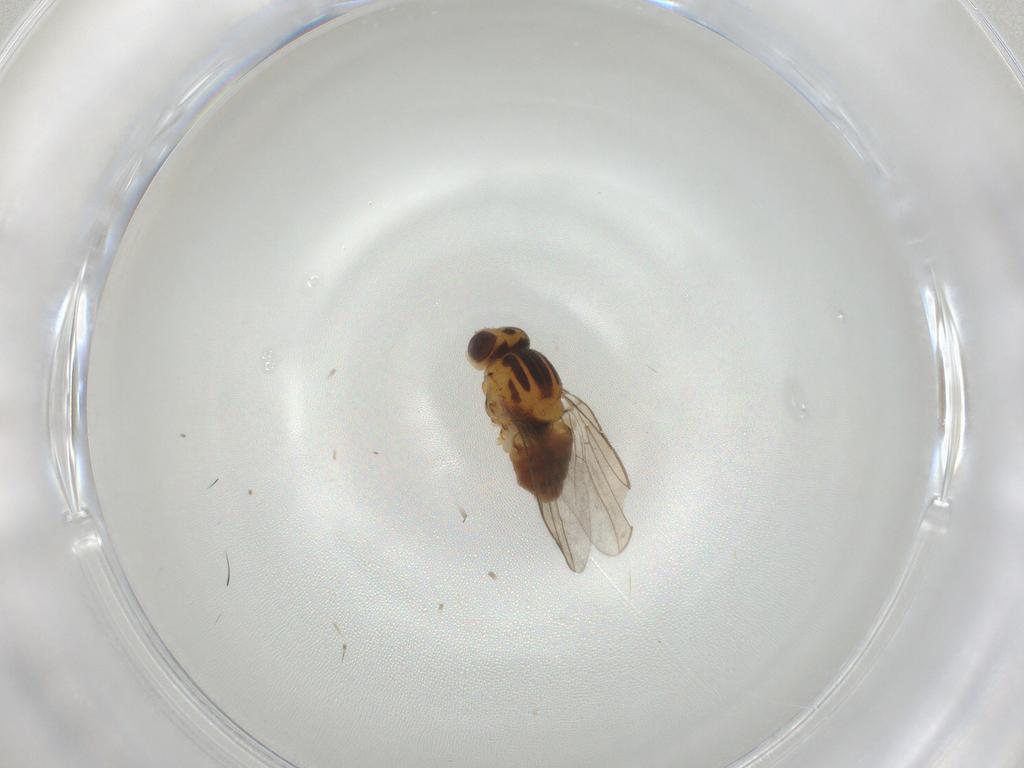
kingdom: Animalia
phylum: Arthropoda
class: Insecta
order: Diptera
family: Chloropidae
